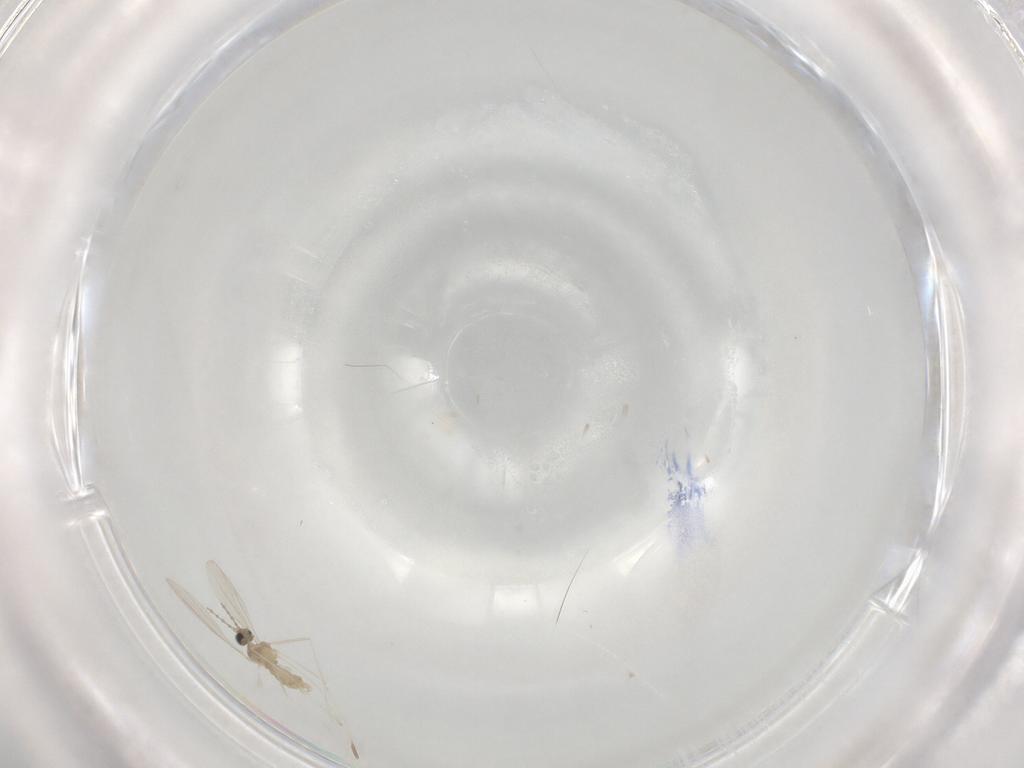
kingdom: Animalia
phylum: Arthropoda
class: Insecta
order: Diptera
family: Cecidomyiidae
